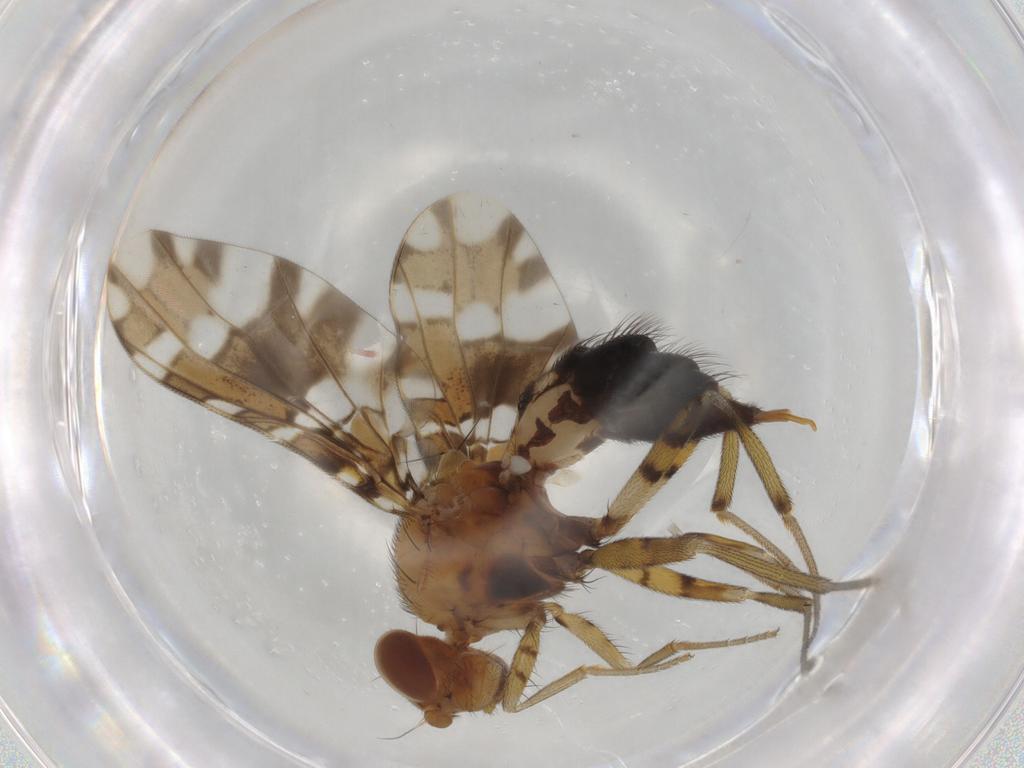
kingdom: Animalia
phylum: Arthropoda
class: Insecta
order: Diptera
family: Ulidiidae
